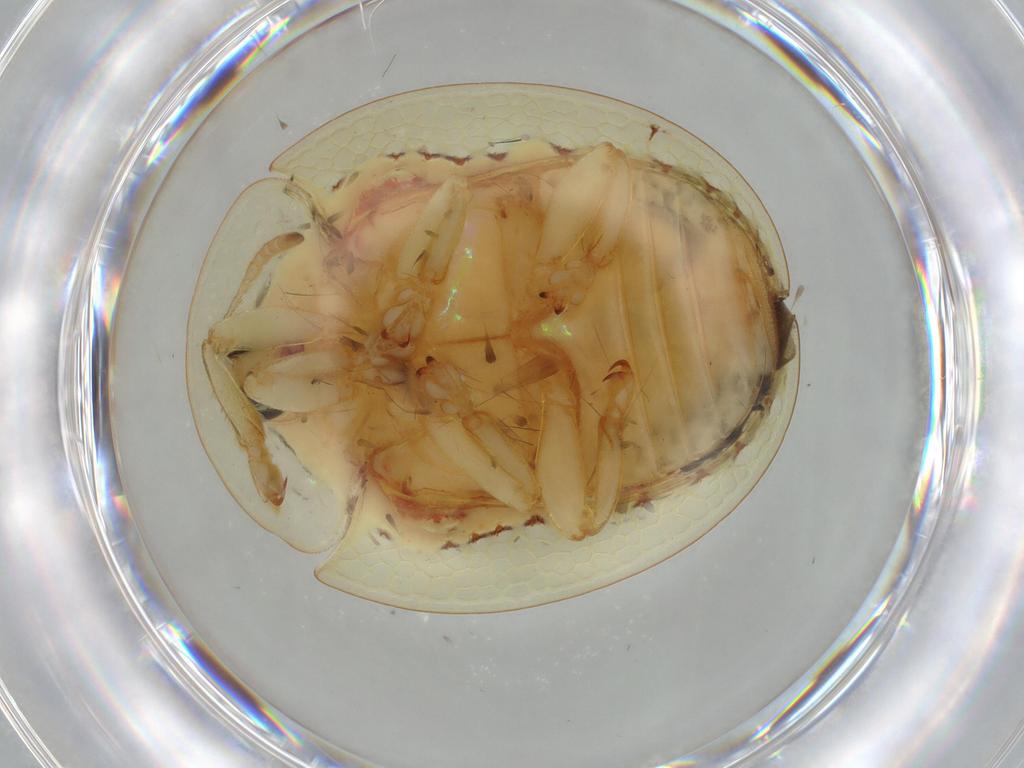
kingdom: Animalia
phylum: Arthropoda
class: Insecta
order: Coleoptera
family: Chrysomelidae
